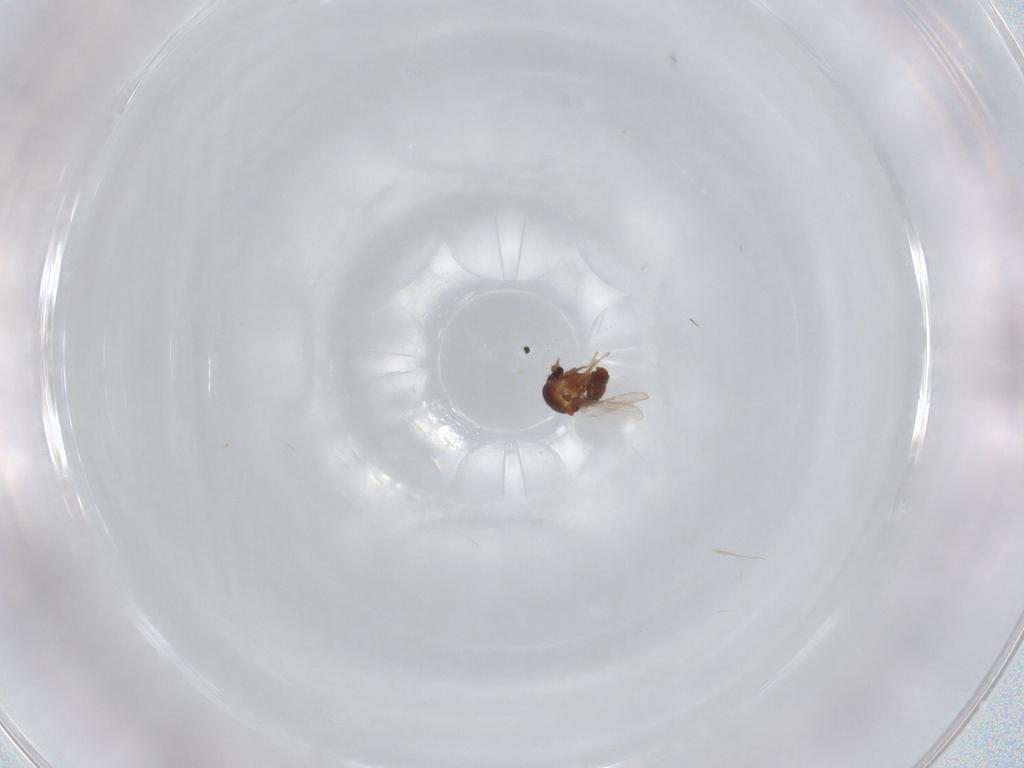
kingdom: Animalia
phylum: Arthropoda
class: Insecta
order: Diptera
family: Ceratopogonidae
